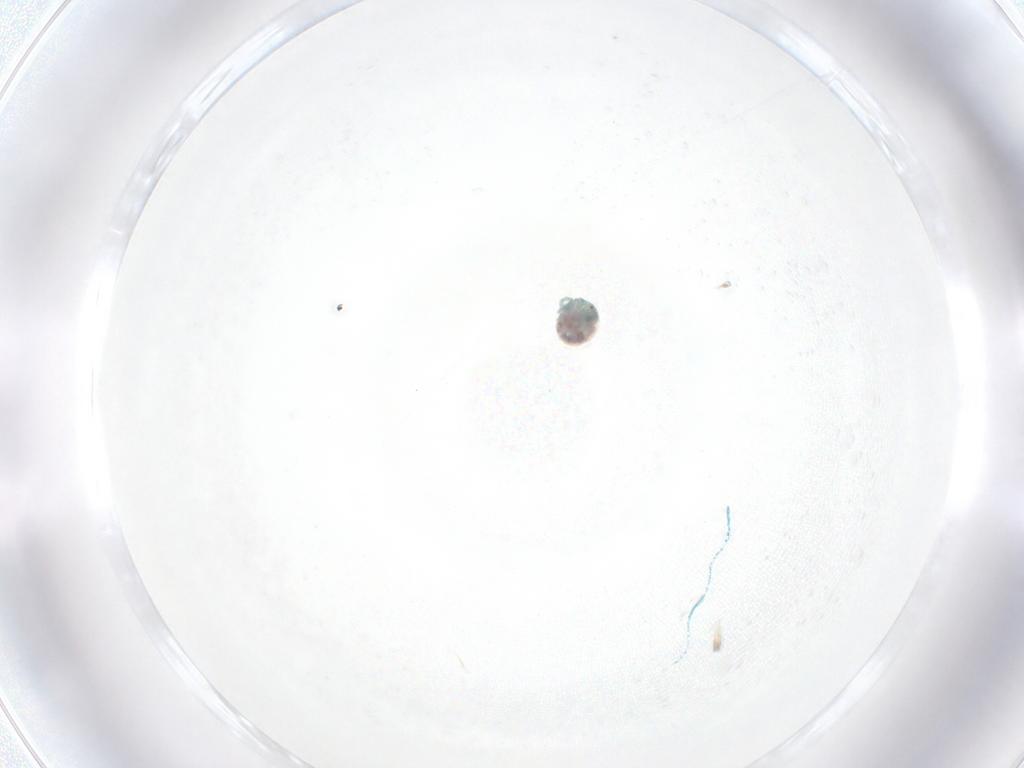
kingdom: Animalia
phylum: Arthropoda
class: Arachnida
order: Trombidiformes
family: Arrenuridae
